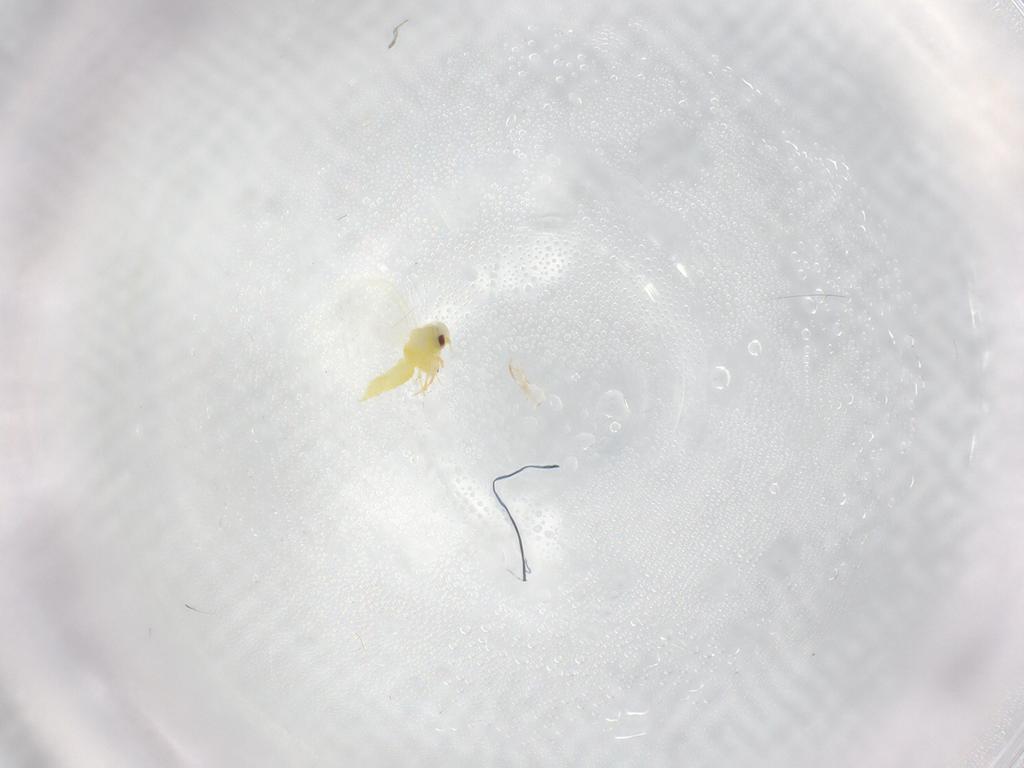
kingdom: Animalia
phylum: Arthropoda
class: Insecta
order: Hemiptera
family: Aleyrodidae
